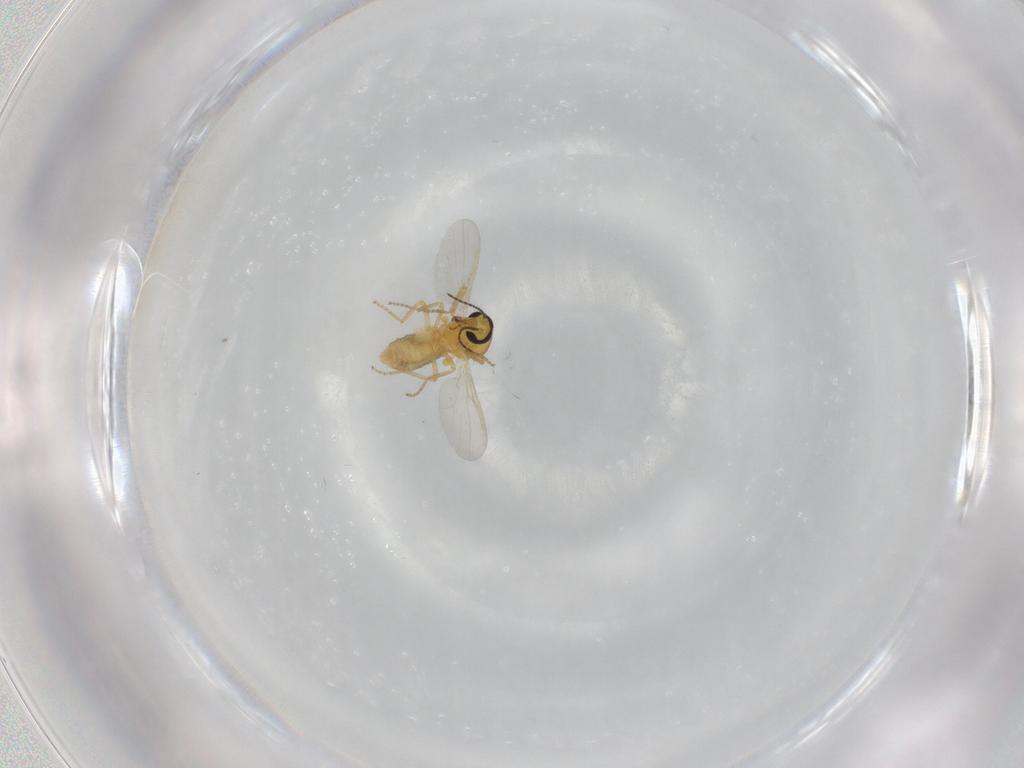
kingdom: Animalia
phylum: Arthropoda
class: Insecta
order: Diptera
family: Ceratopogonidae
